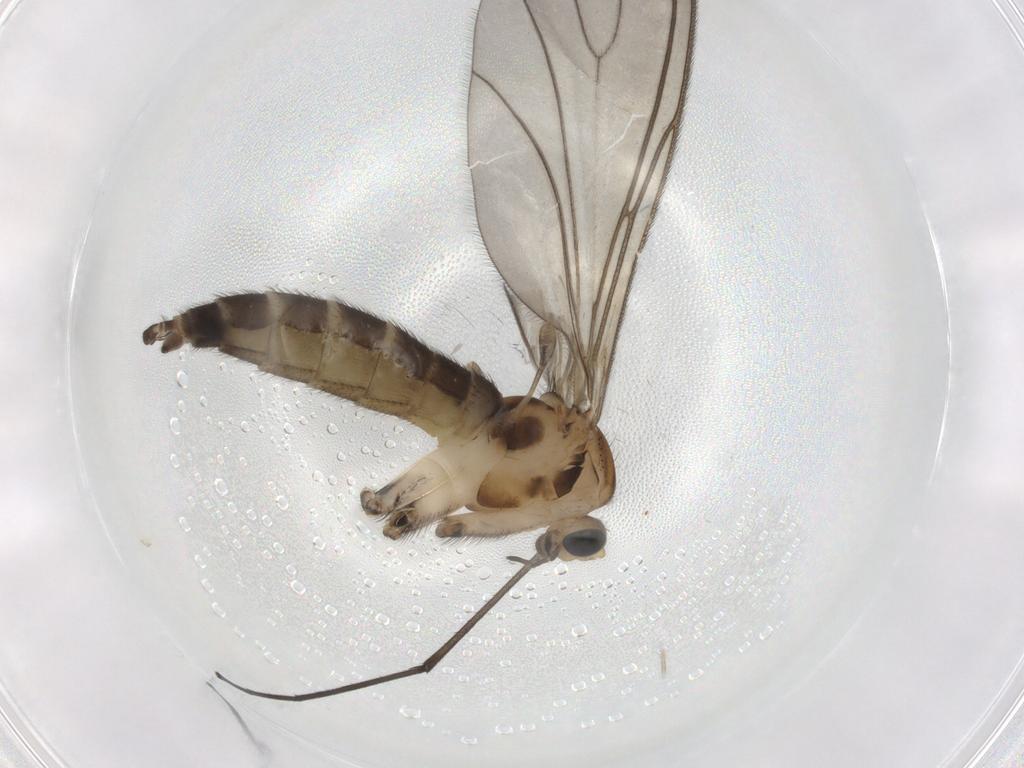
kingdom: Animalia
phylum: Arthropoda
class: Insecta
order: Diptera
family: Sciaridae
